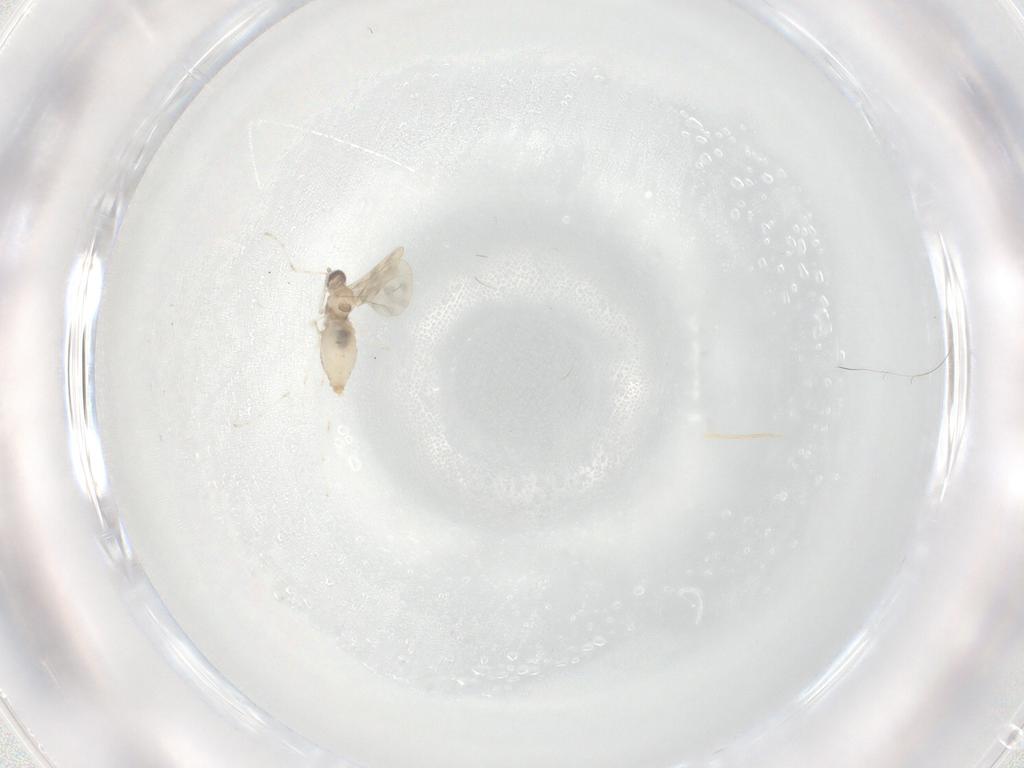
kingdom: Animalia
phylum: Arthropoda
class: Insecta
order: Diptera
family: Cecidomyiidae
